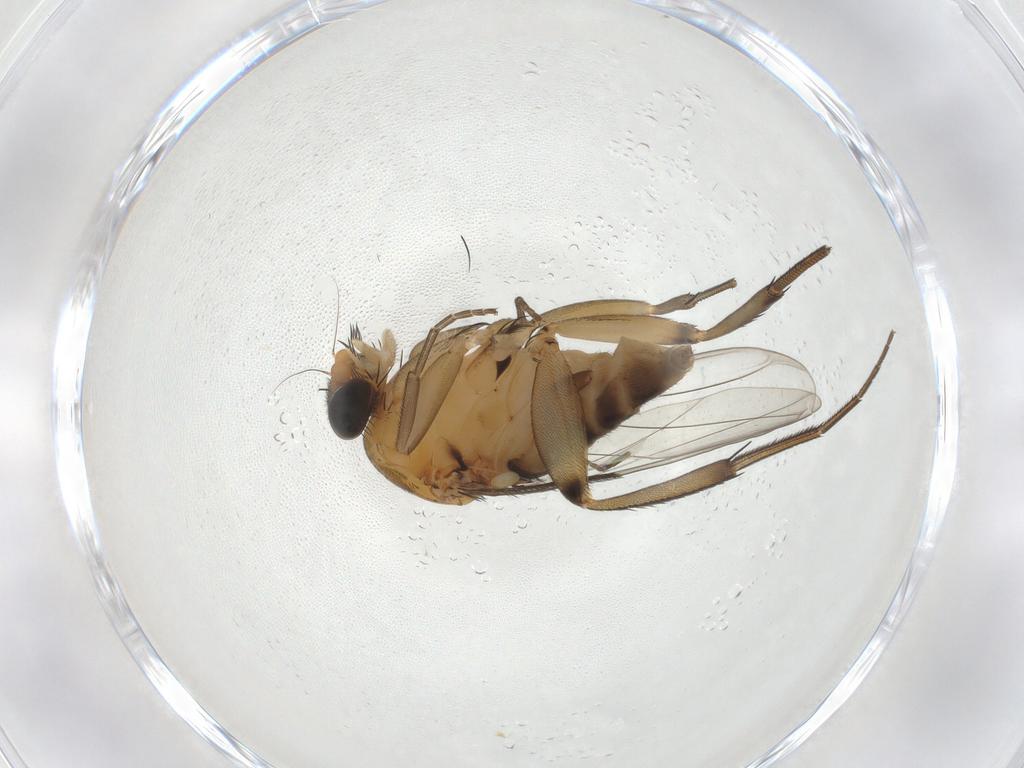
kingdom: Animalia
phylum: Arthropoda
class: Insecta
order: Diptera
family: Phoridae
